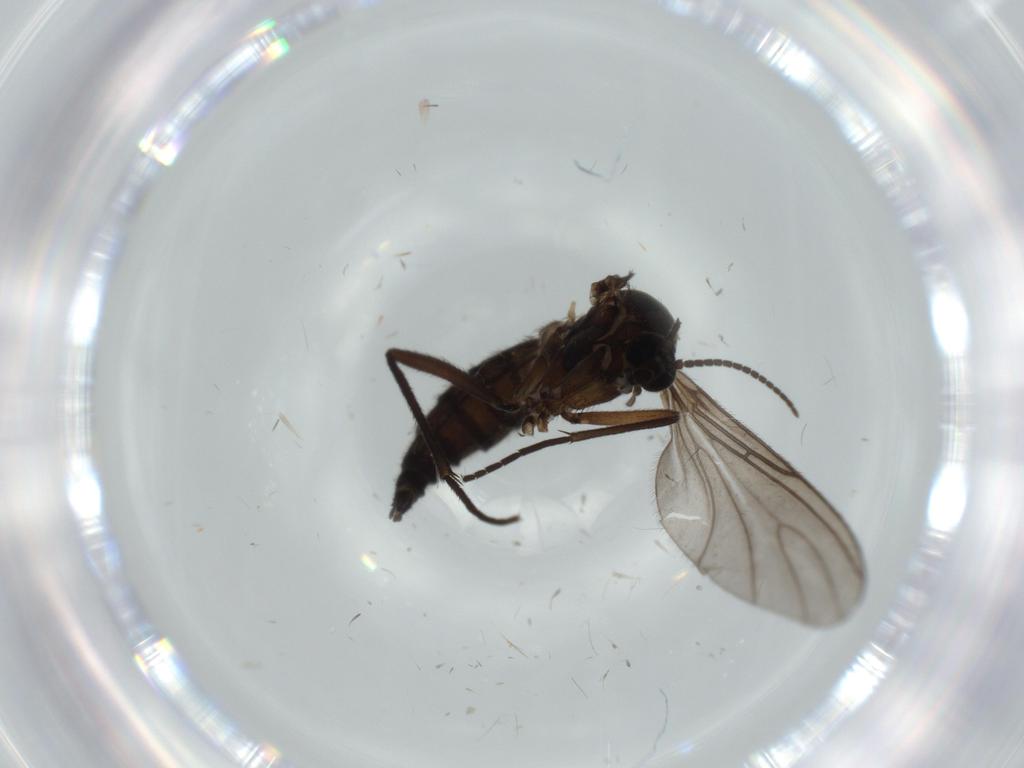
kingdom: Animalia
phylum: Arthropoda
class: Insecta
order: Diptera
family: Sciaridae
